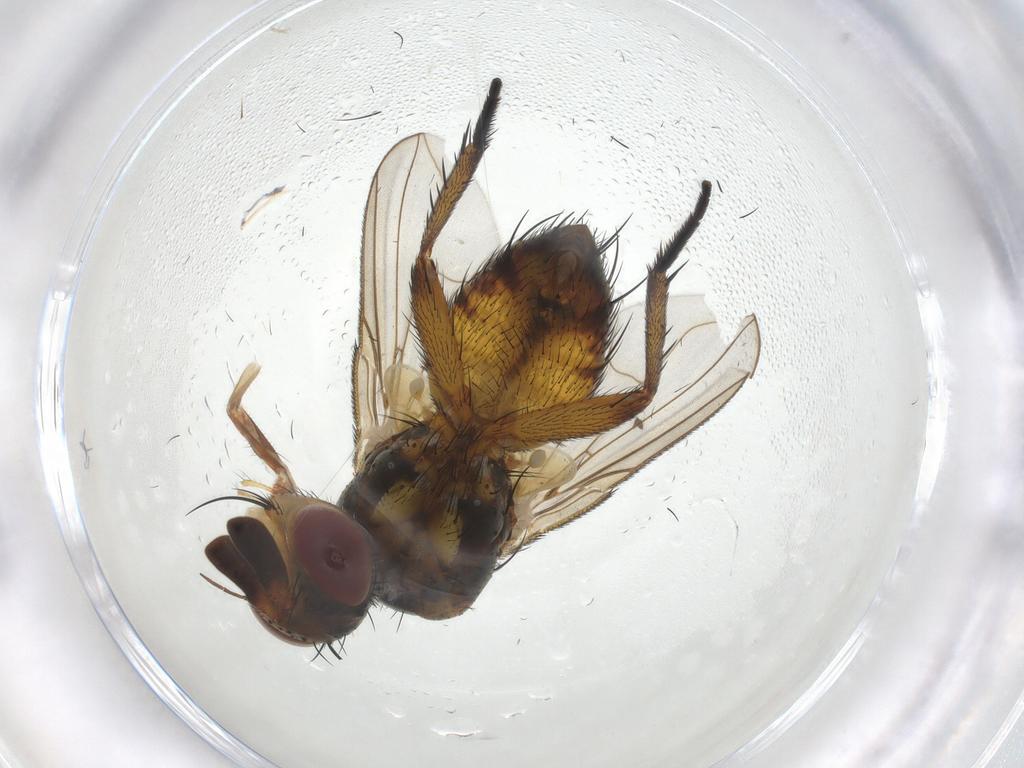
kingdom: Animalia
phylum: Arthropoda
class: Insecta
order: Diptera
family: Tachinidae
